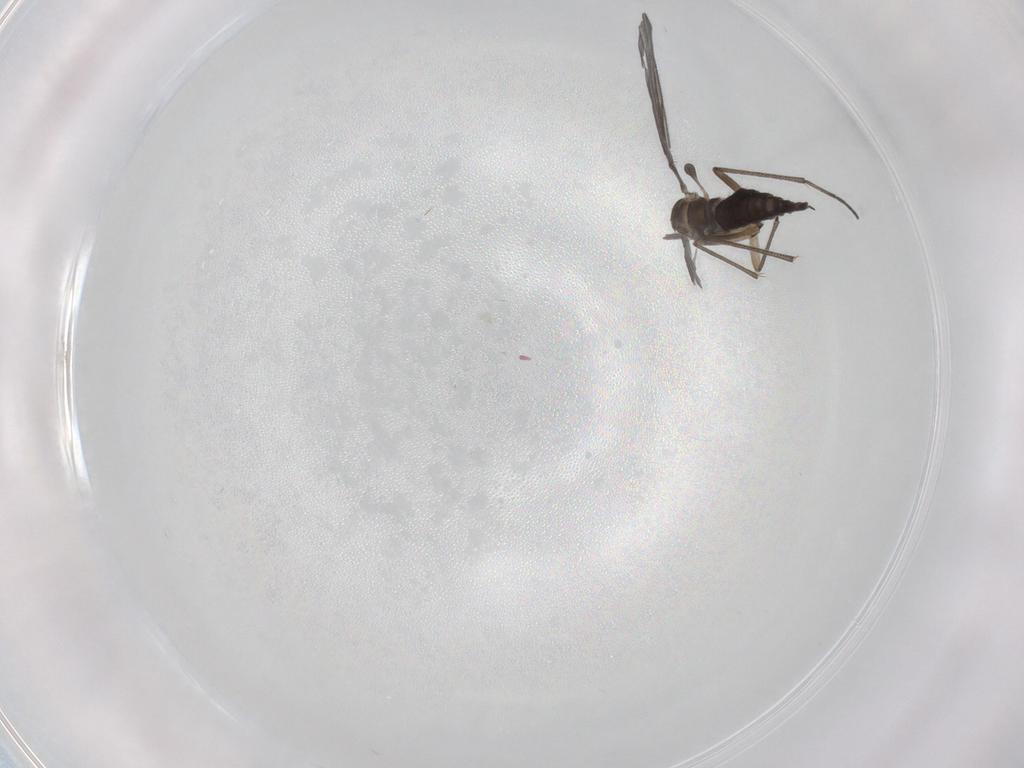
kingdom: Animalia
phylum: Arthropoda
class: Insecta
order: Diptera
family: Sciaridae
